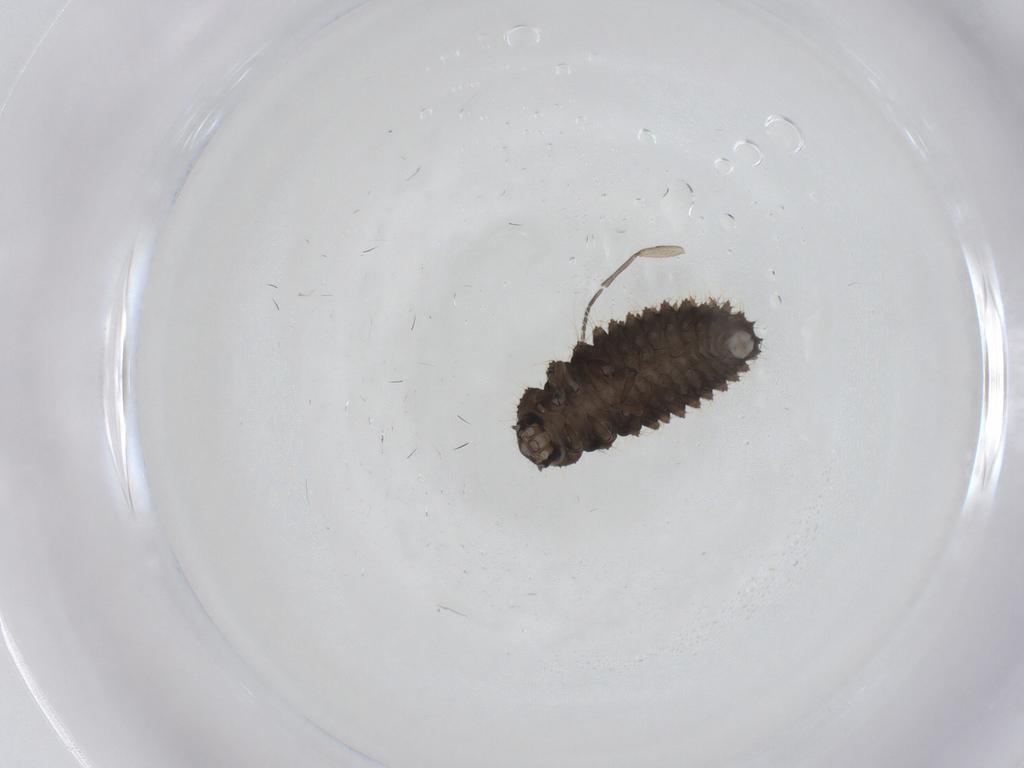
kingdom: Animalia
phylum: Arthropoda
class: Insecta
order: Coleoptera
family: Coccinellidae
